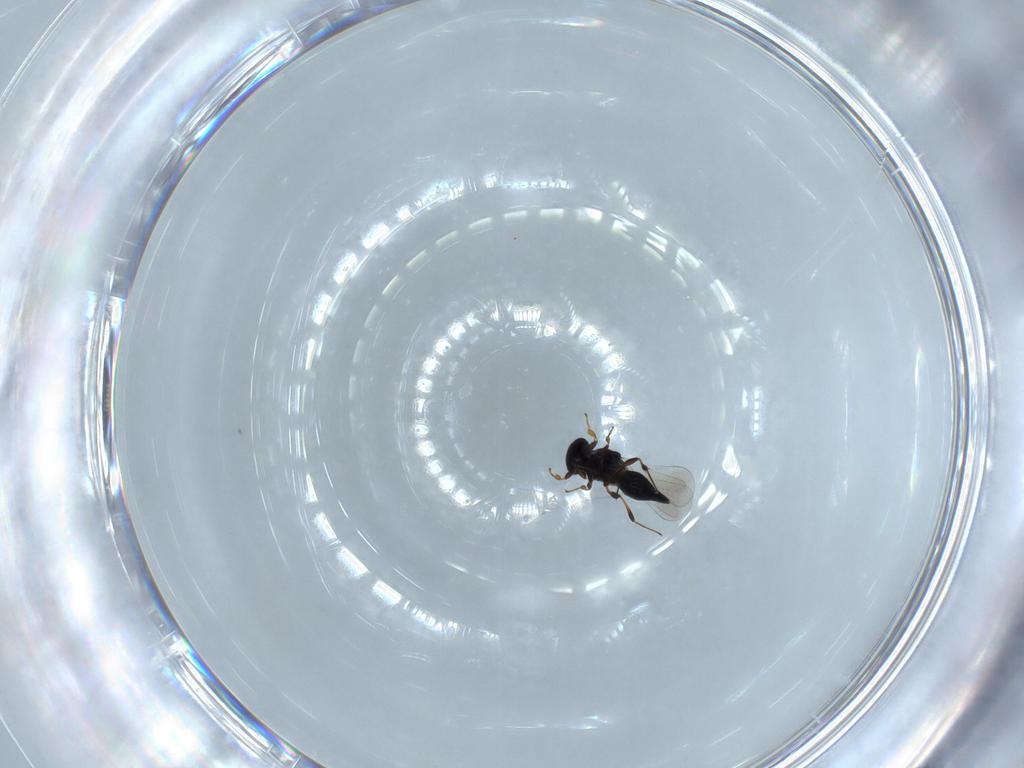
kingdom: Animalia
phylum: Arthropoda
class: Insecta
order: Hymenoptera
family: Platygastridae
